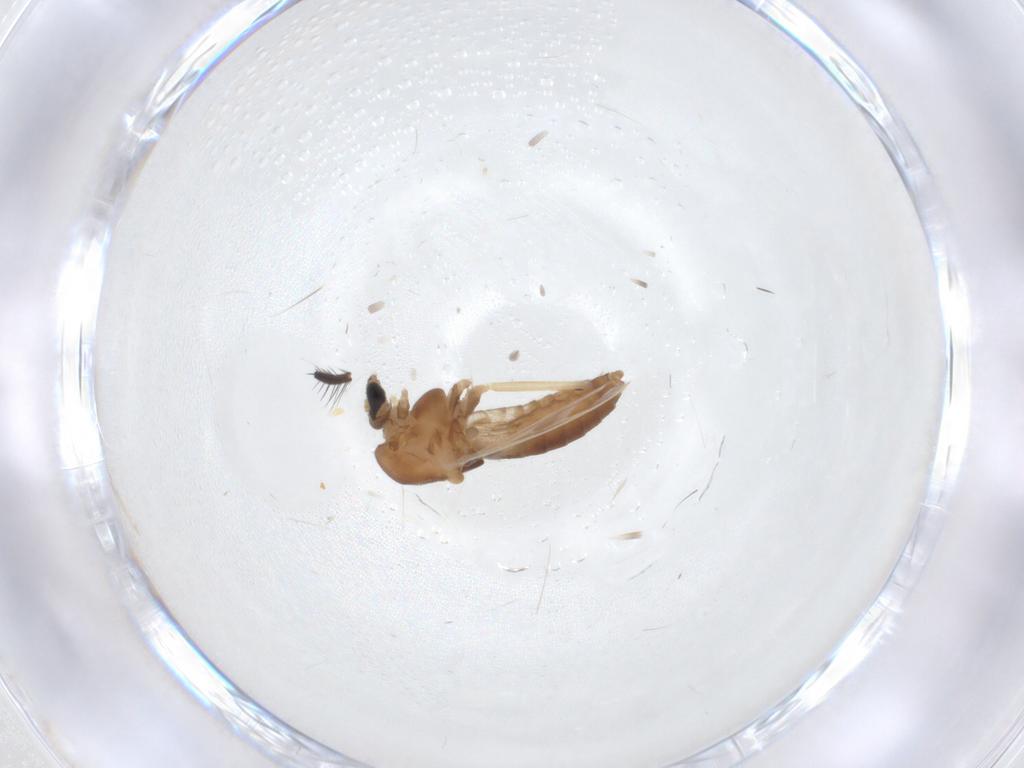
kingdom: Animalia
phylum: Arthropoda
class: Insecta
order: Diptera
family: Chironomidae
